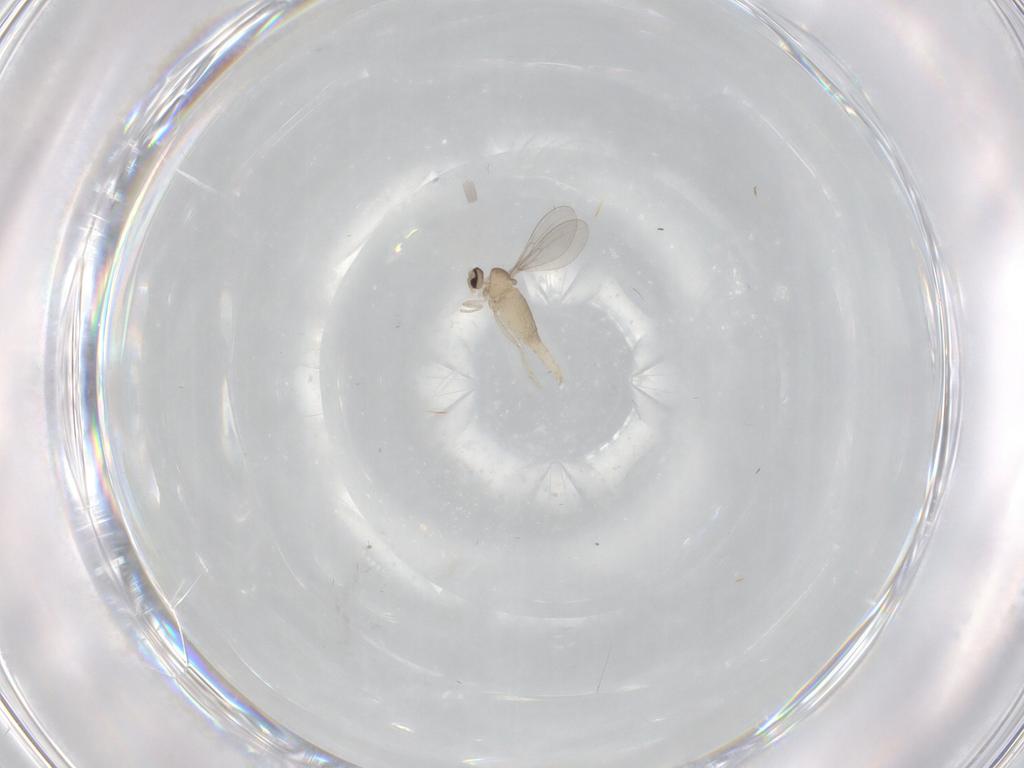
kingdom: Animalia
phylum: Arthropoda
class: Insecta
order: Diptera
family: Cecidomyiidae
